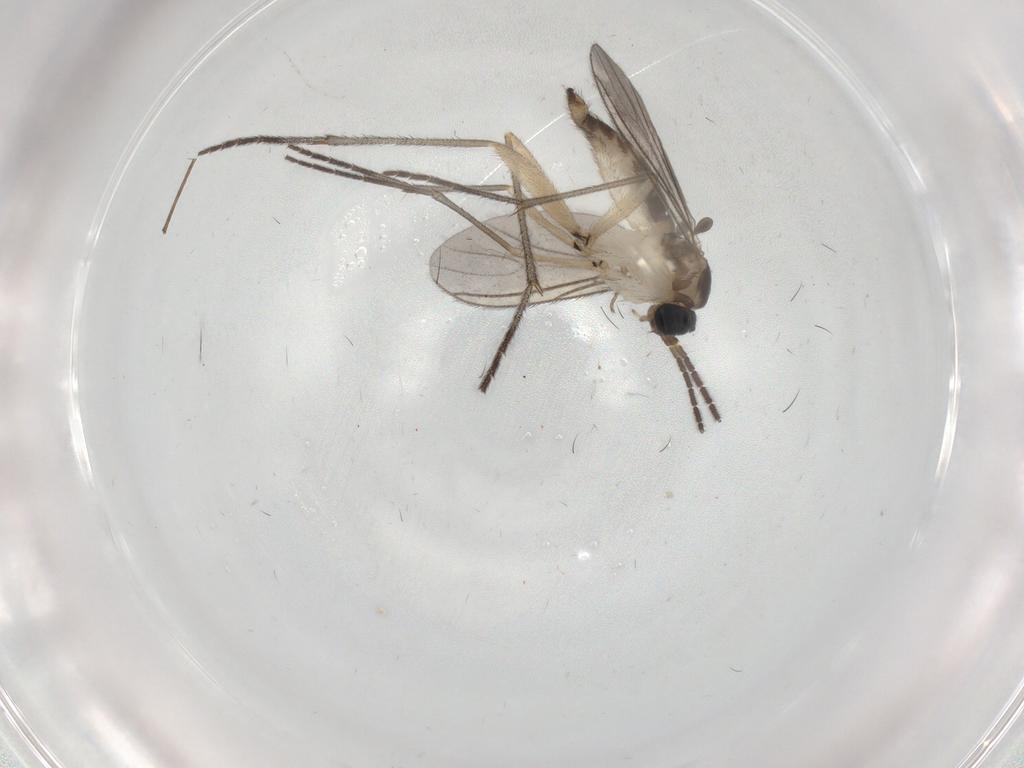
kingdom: Animalia
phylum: Arthropoda
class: Insecta
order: Diptera
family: Sciaridae
